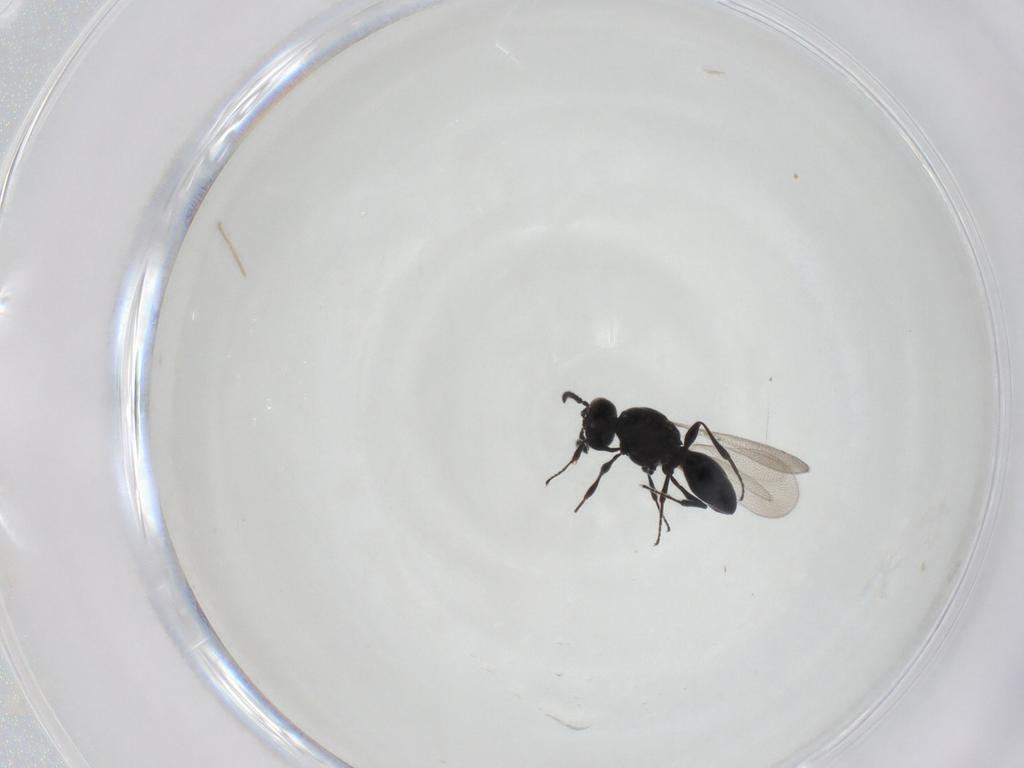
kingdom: Animalia
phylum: Arthropoda
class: Insecta
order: Hymenoptera
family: Platygastridae
